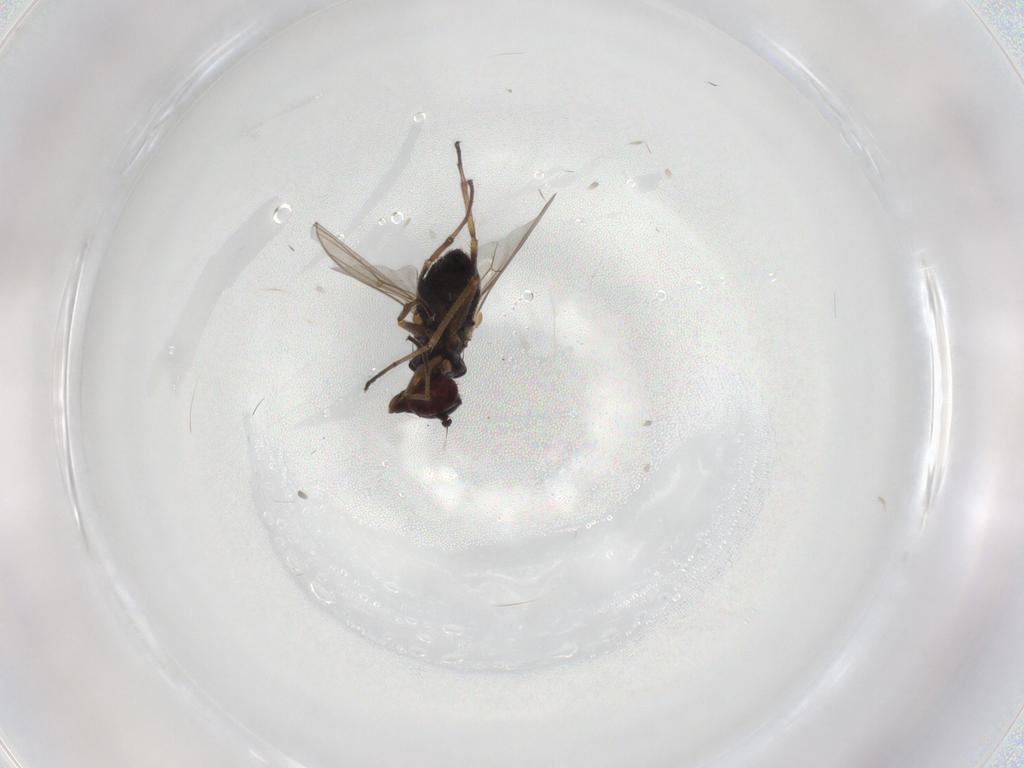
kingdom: Animalia
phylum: Arthropoda
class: Insecta
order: Diptera
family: Dolichopodidae
